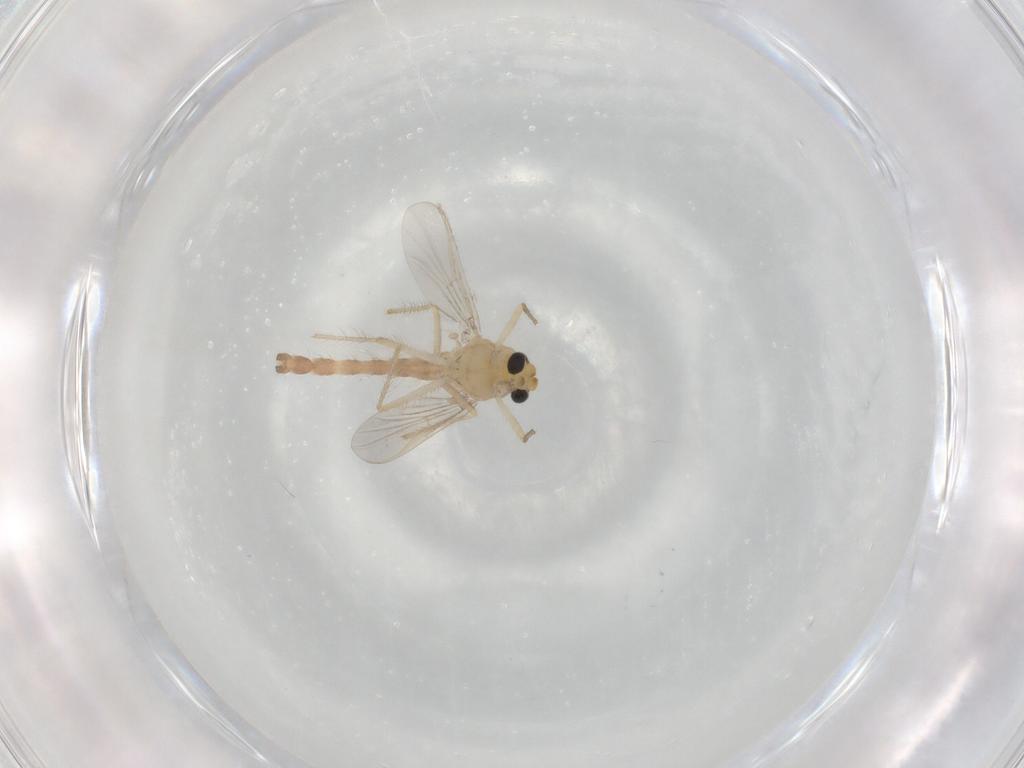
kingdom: Animalia
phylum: Arthropoda
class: Insecta
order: Diptera
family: Chironomidae
